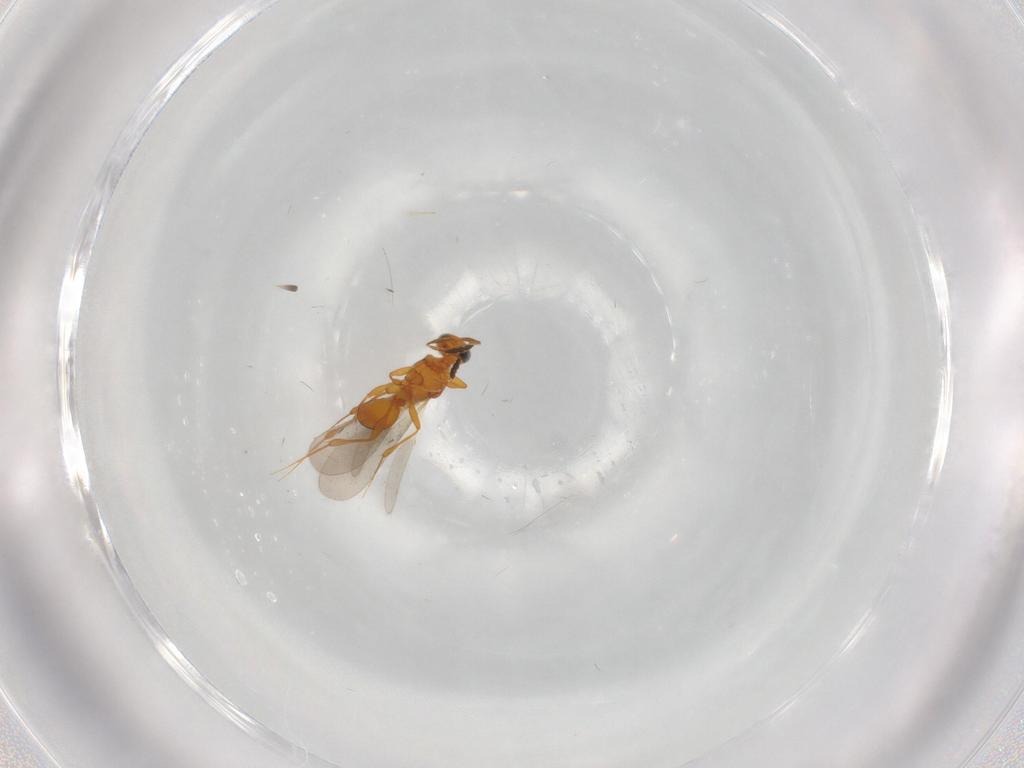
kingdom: Animalia
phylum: Arthropoda
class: Insecta
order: Hymenoptera
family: Platygastridae
